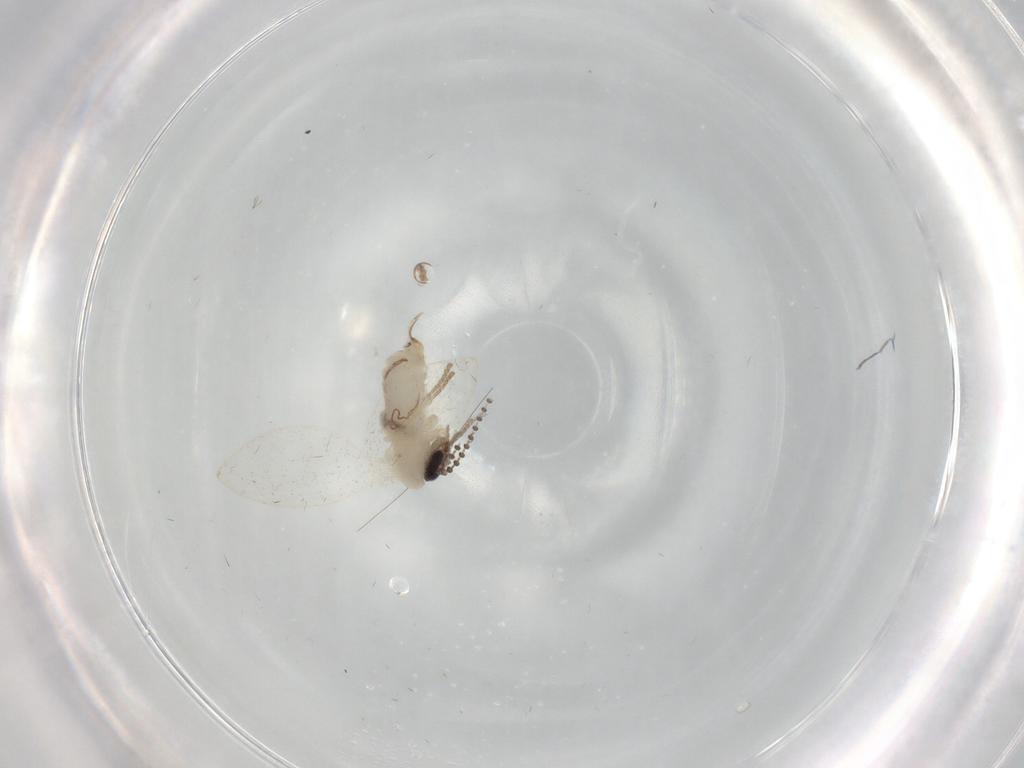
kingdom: Animalia
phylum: Arthropoda
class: Insecta
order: Diptera
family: Psychodidae
